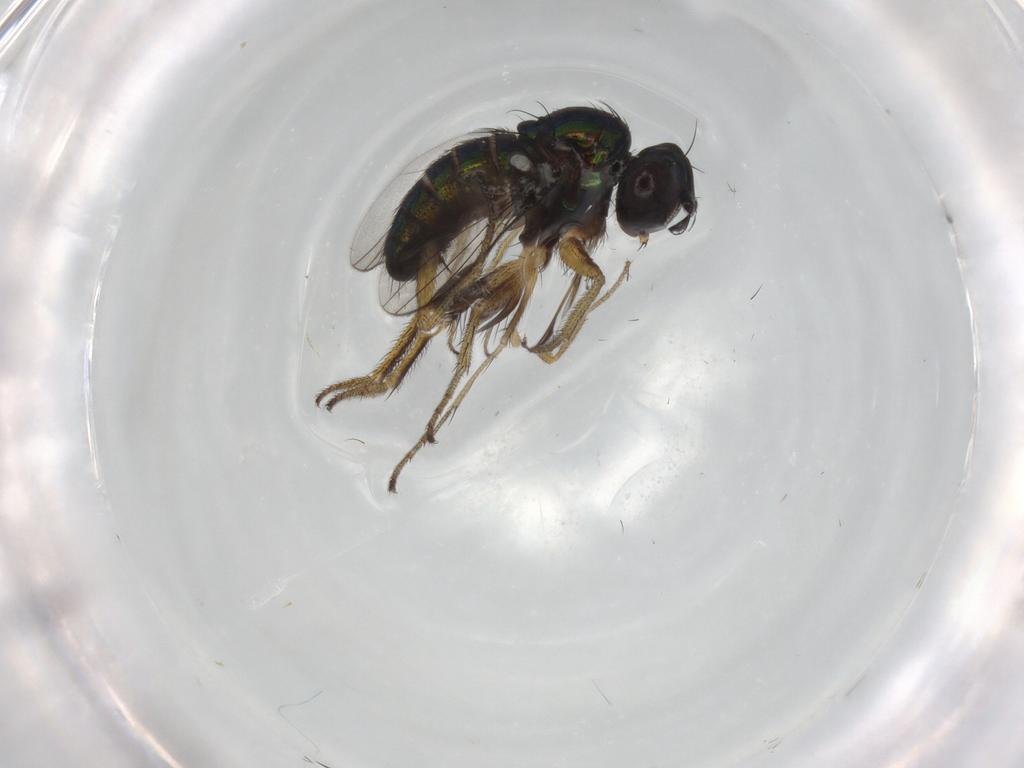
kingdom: Animalia
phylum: Arthropoda
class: Insecta
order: Diptera
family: Dolichopodidae
